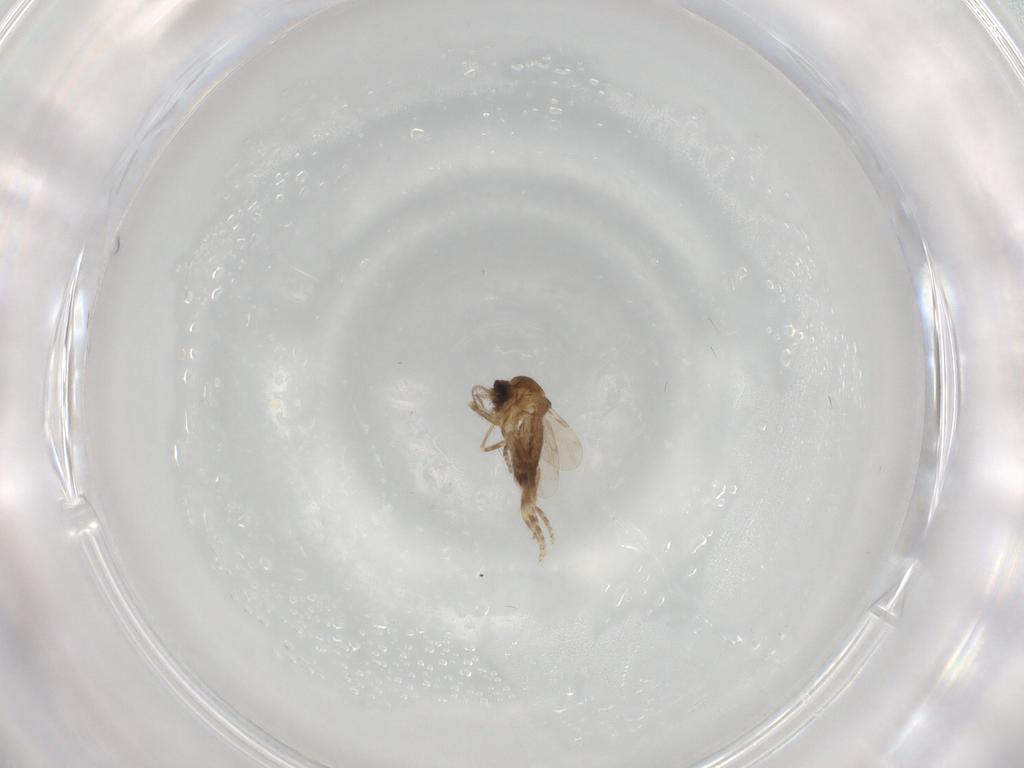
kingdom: Animalia
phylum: Arthropoda
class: Insecta
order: Diptera
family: Ceratopogonidae
